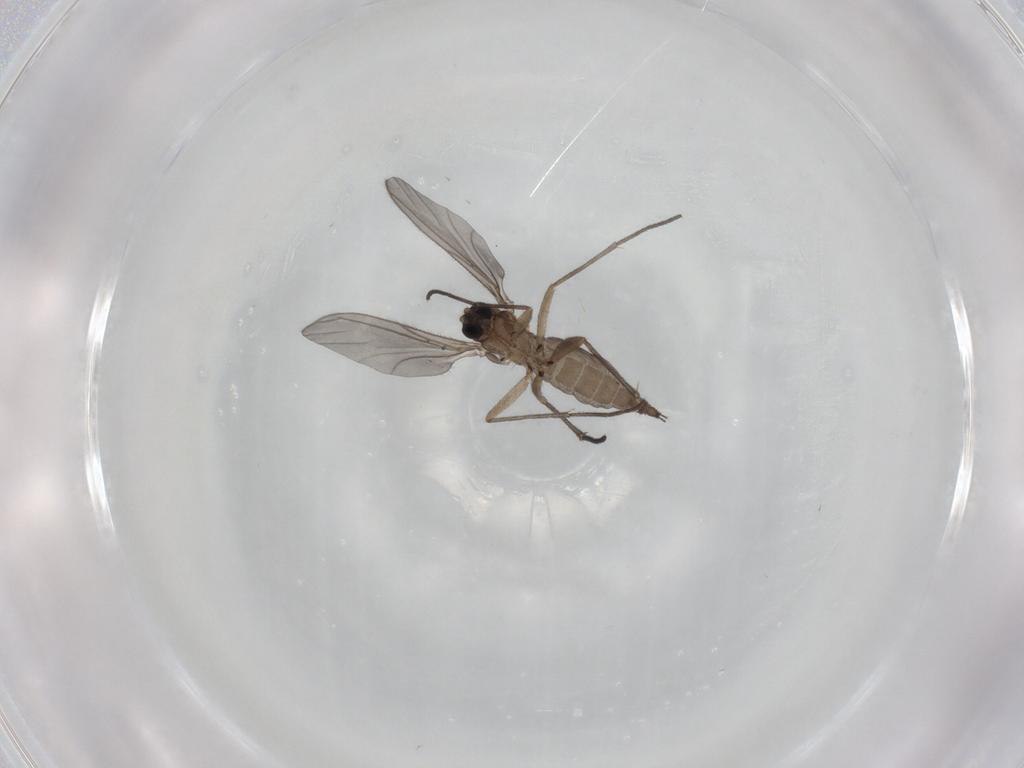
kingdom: Animalia
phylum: Arthropoda
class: Insecta
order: Diptera
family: Sciaridae
